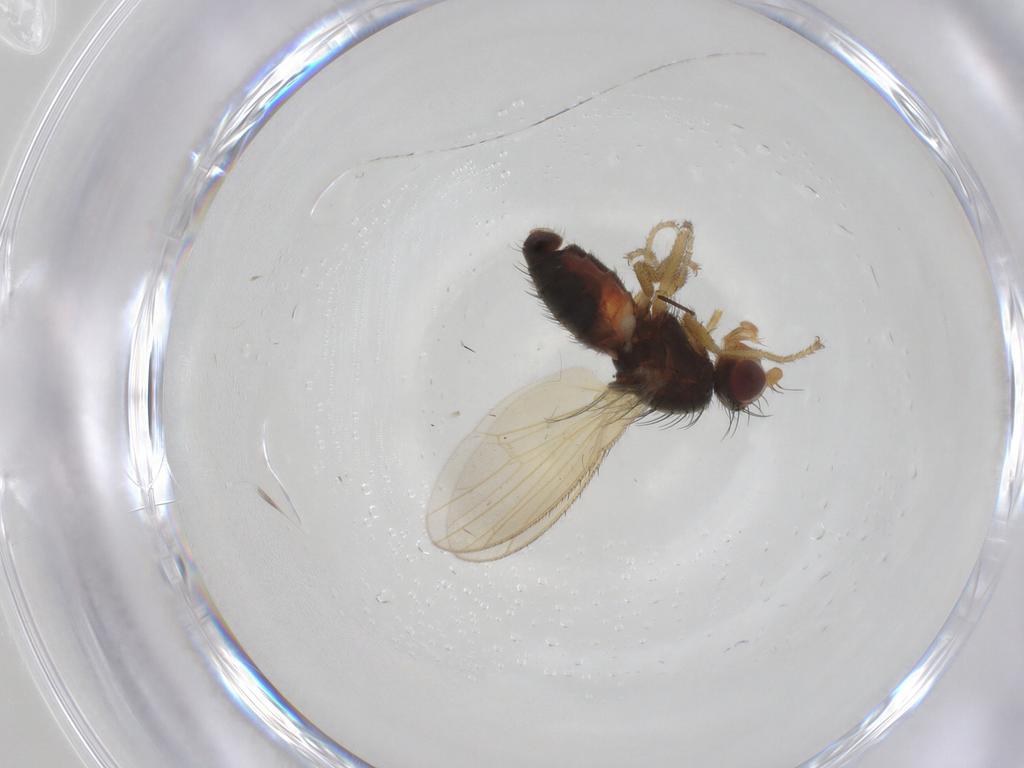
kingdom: Animalia
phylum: Arthropoda
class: Insecta
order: Diptera
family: Heleomyzidae
